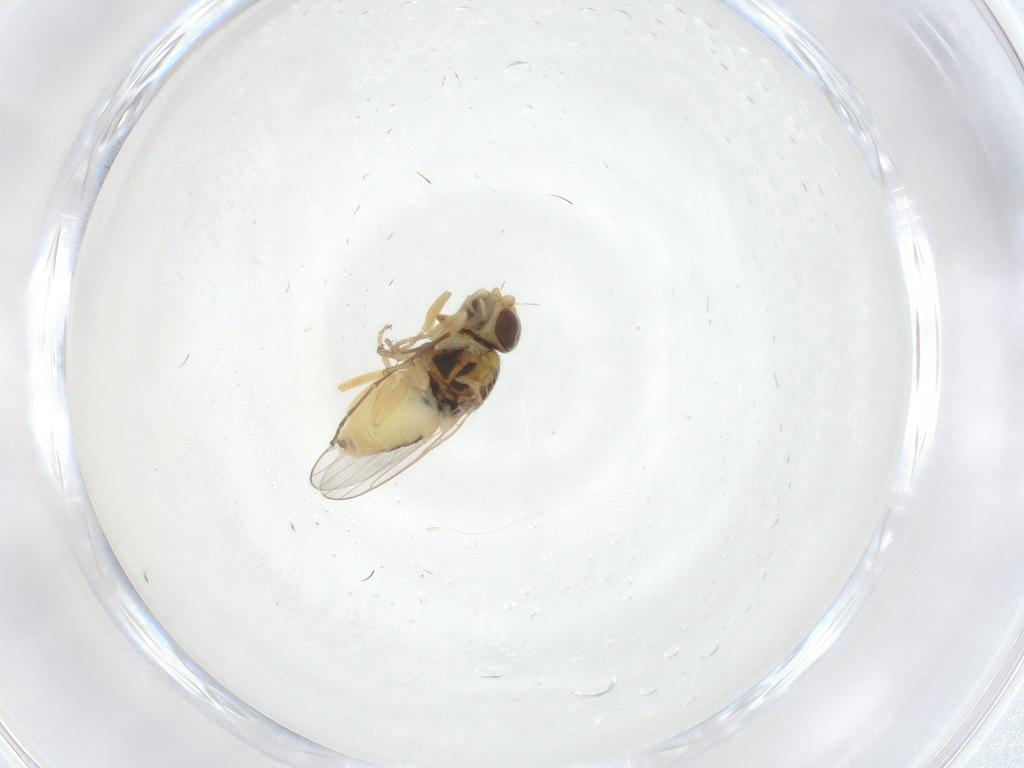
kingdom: Animalia
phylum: Arthropoda
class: Insecta
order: Diptera
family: Chloropidae
